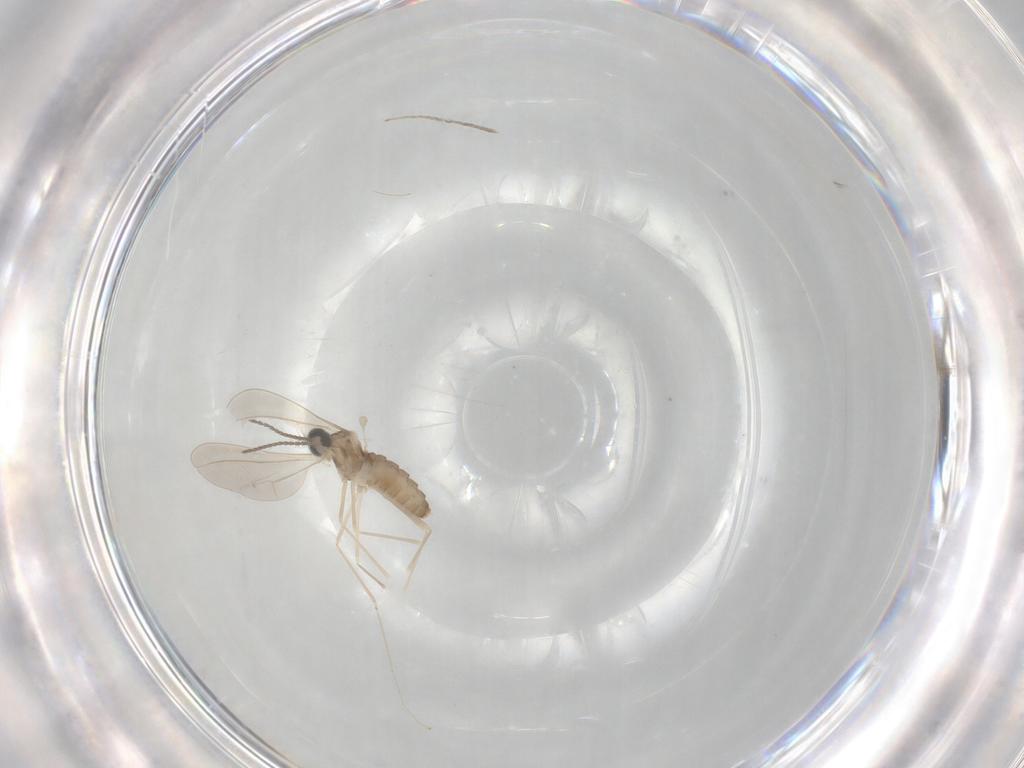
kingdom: Animalia
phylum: Arthropoda
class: Insecta
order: Diptera
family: Cecidomyiidae
